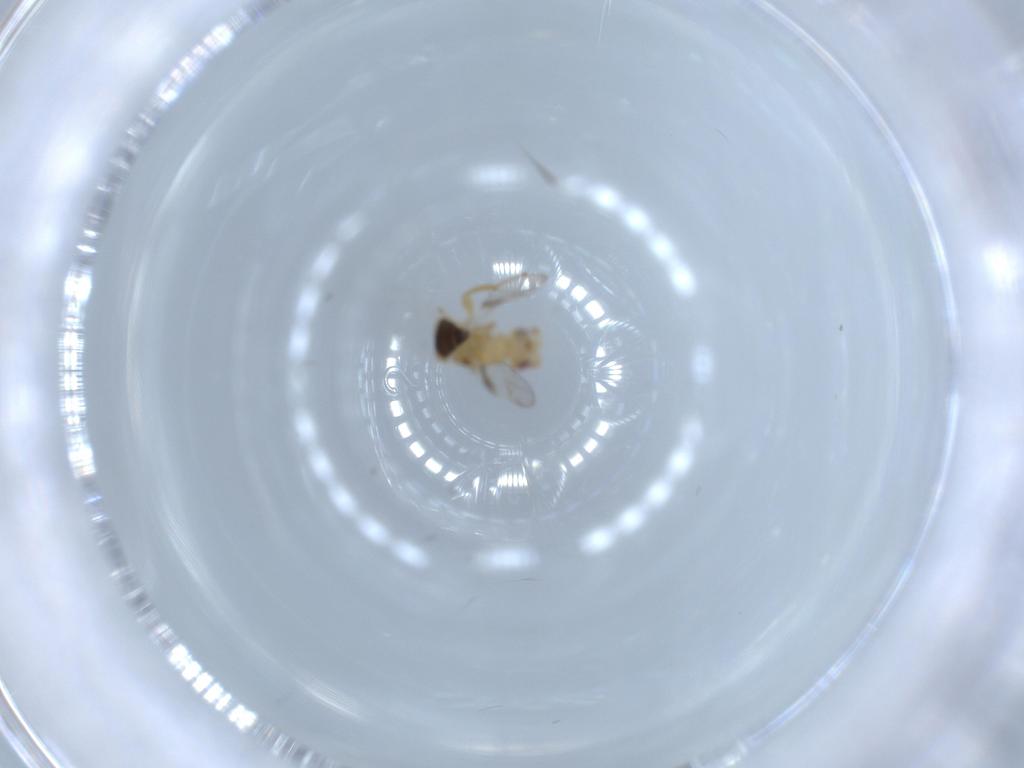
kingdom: Animalia
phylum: Arthropoda
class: Insecta
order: Hymenoptera
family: Torymidae
